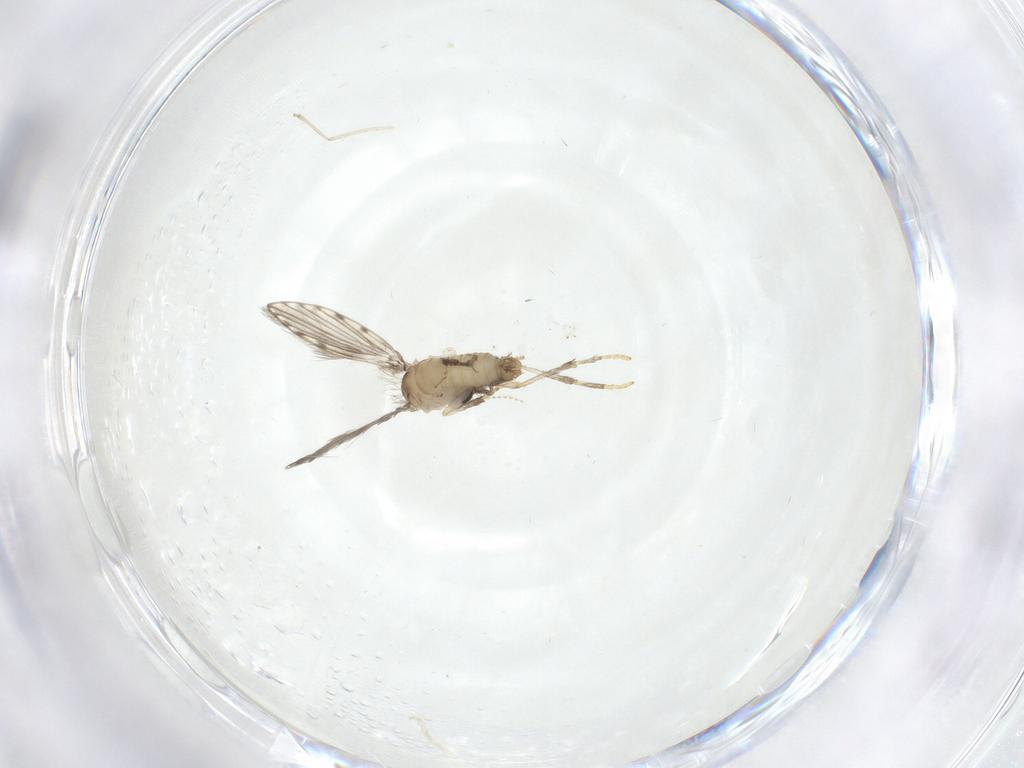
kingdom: Animalia
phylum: Arthropoda
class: Insecta
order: Diptera
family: Psychodidae
